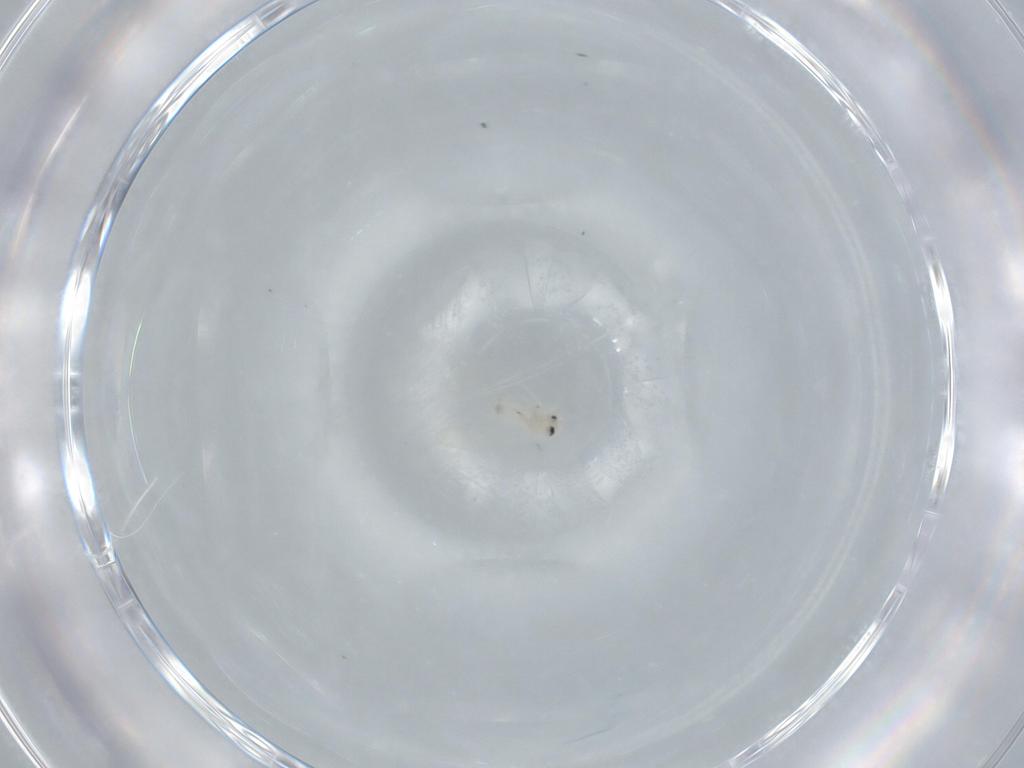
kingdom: Animalia
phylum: Arthropoda
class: Insecta
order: Hemiptera
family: Aleyrodidae
